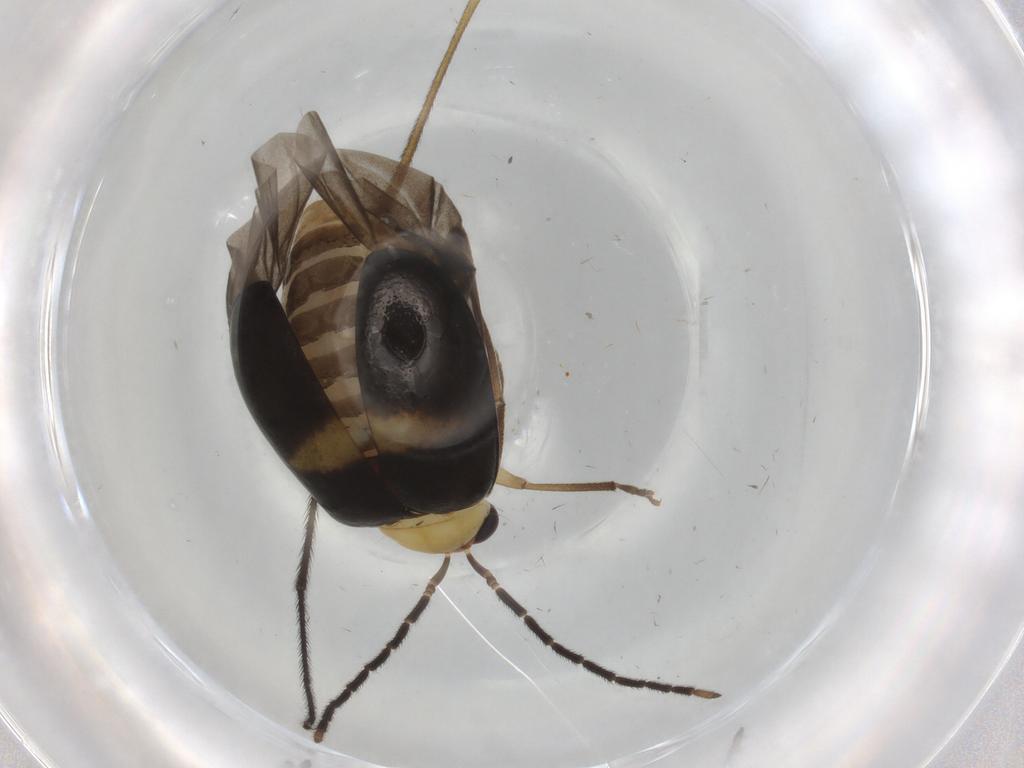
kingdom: Animalia
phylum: Arthropoda
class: Insecta
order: Coleoptera
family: Chrysomelidae
